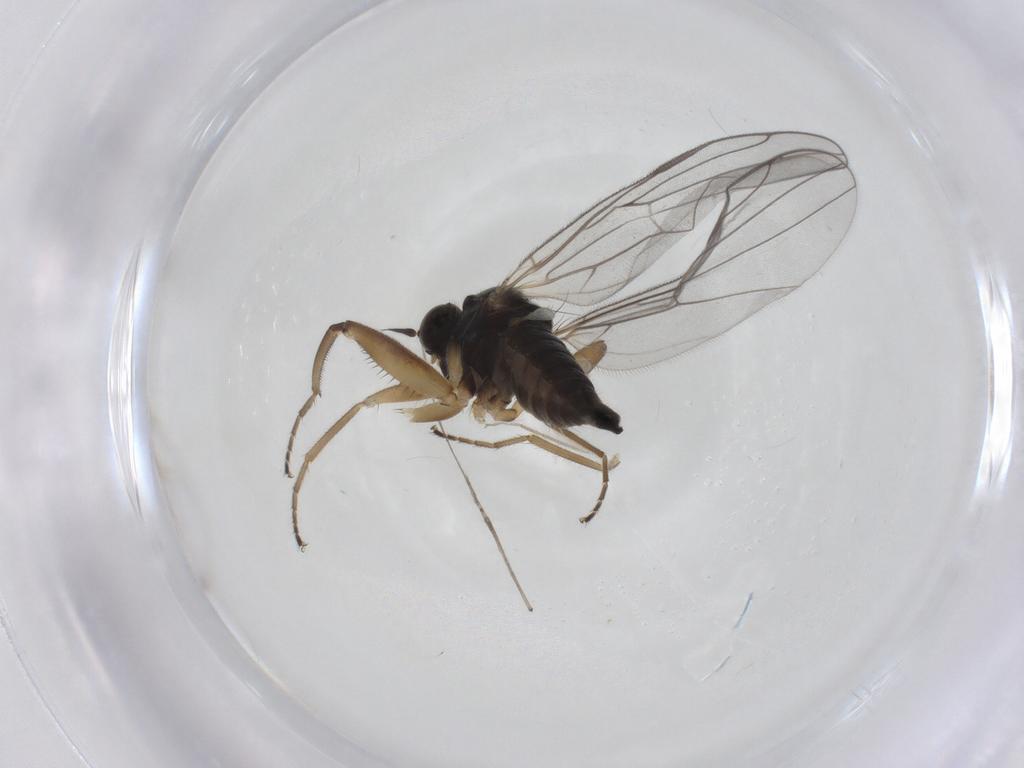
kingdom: Animalia
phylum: Arthropoda
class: Insecta
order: Diptera
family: Hybotidae
